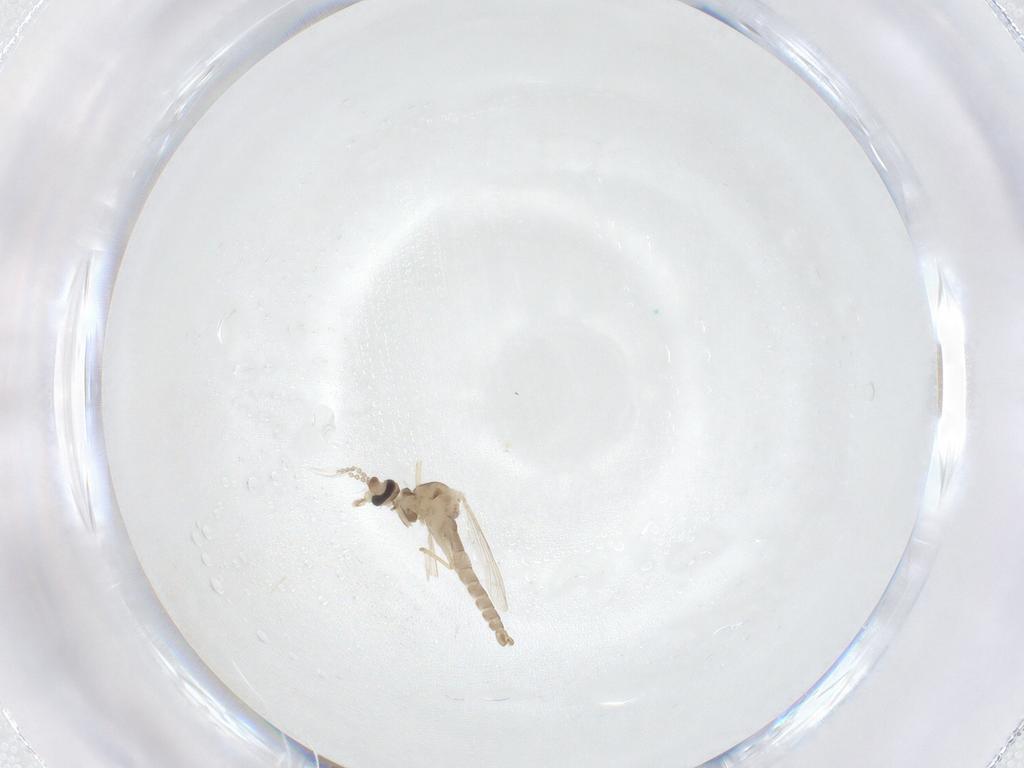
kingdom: Animalia
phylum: Arthropoda
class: Insecta
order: Diptera
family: Ceratopogonidae
